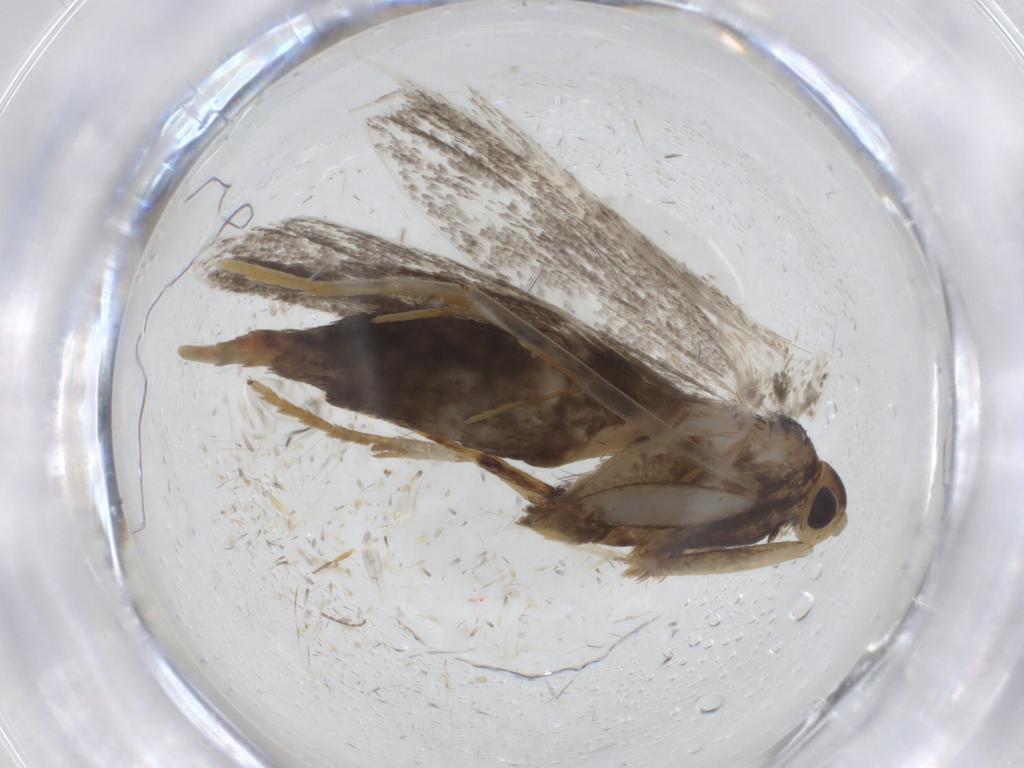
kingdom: Animalia
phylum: Arthropoda
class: Insecta
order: Lepidoptera
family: Lecithoceridae
